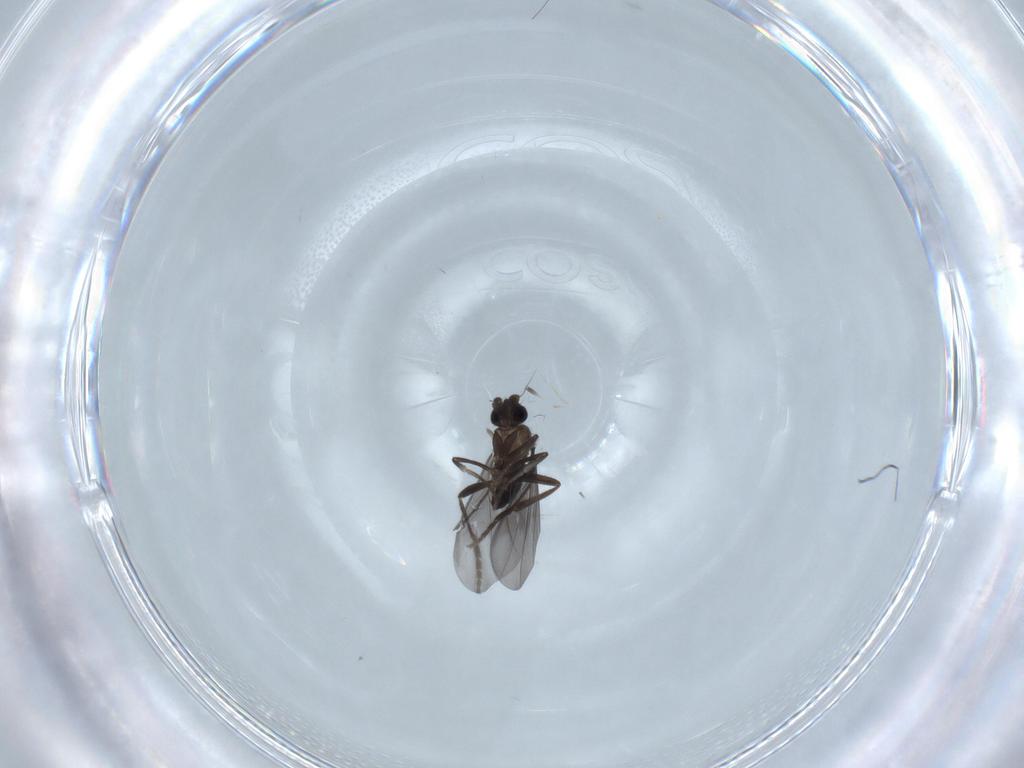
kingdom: Animalia
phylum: Arthropoda
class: Insecta
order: Diptera
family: Phoridae
